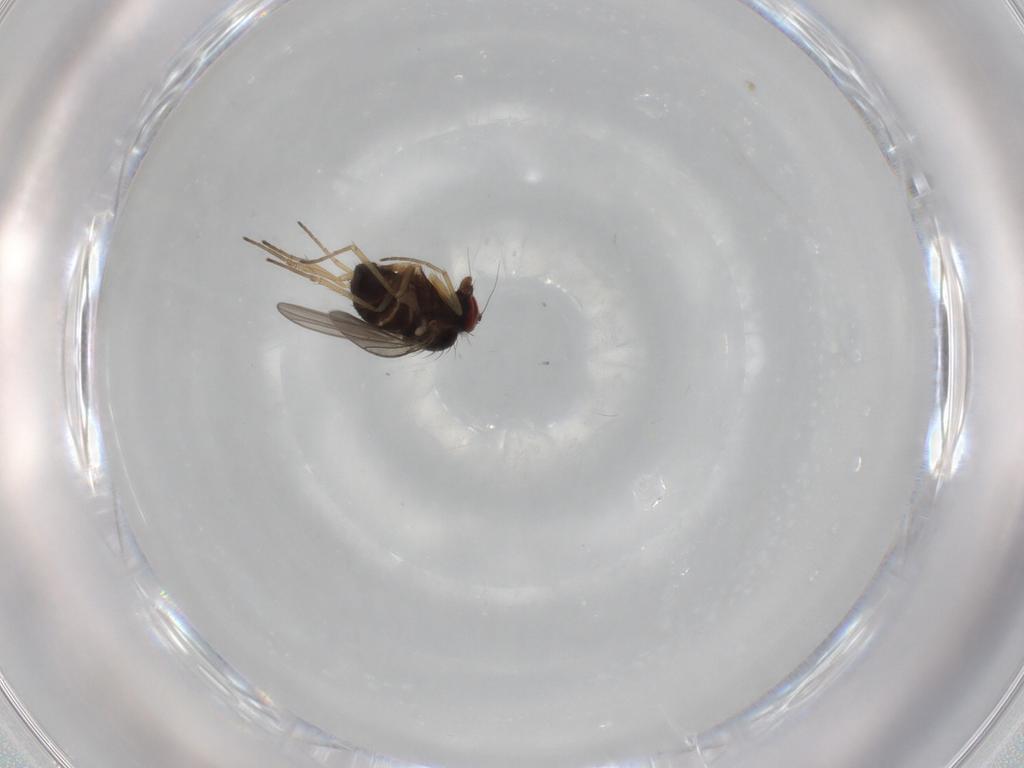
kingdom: Animalia
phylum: Arthropoda
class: Insecta
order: Diptera
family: Dolichopodidae
